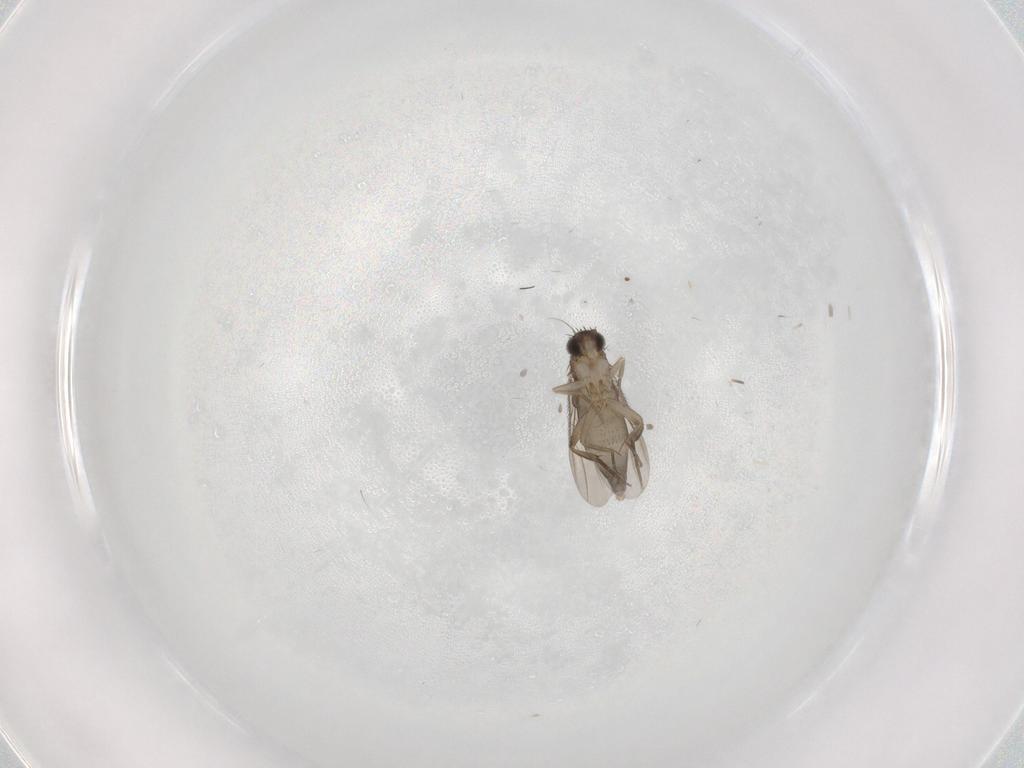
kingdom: Animalia
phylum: Arthropoda
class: Insecta
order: Diptera
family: Phoridae
